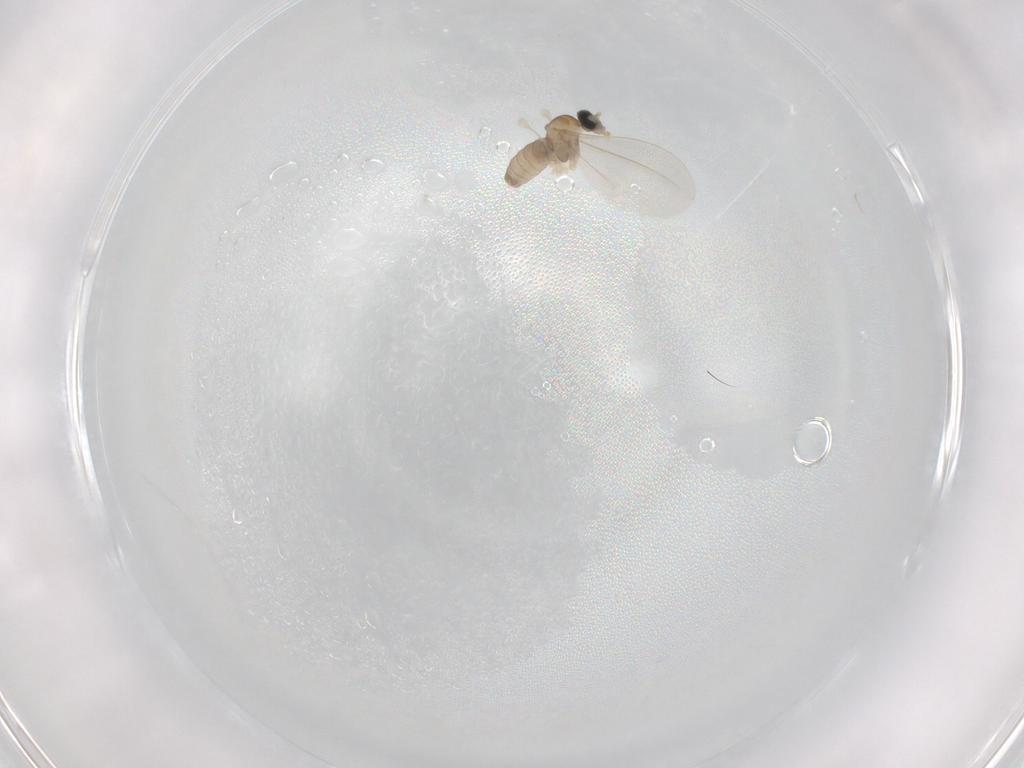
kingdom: Animalia
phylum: Arthropoda
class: Insecta
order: Diptera
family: Cecidomyiidae
